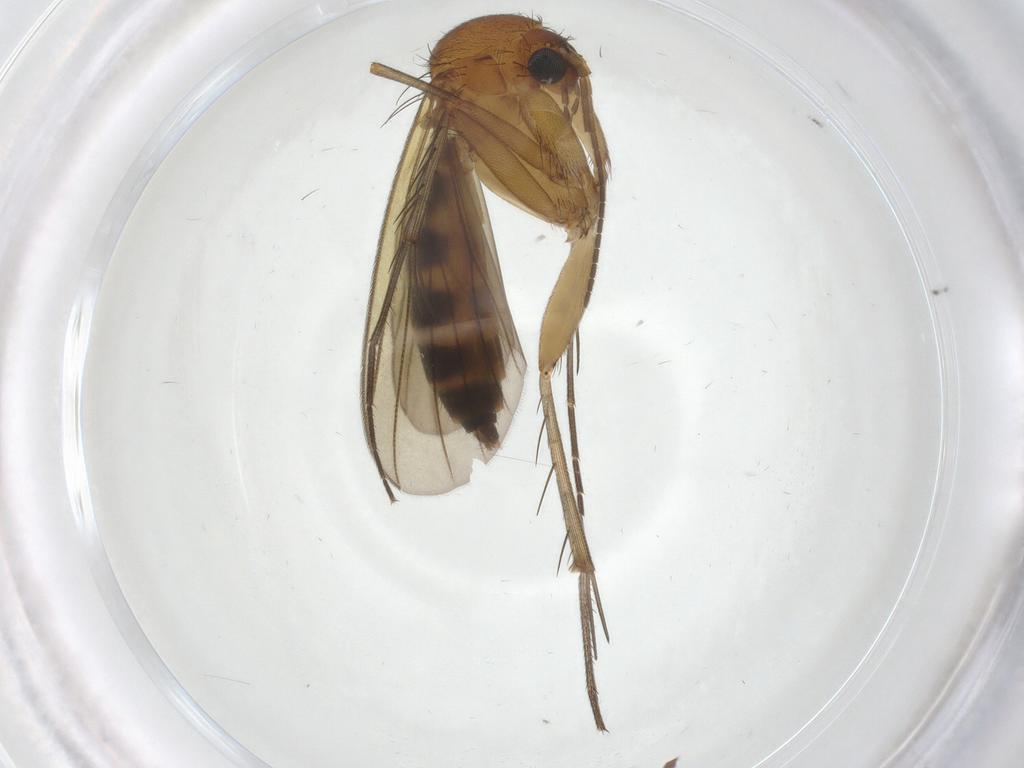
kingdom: Animalia
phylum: Arthropoda
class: Insecta
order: Diptera
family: Mycetophilidae
